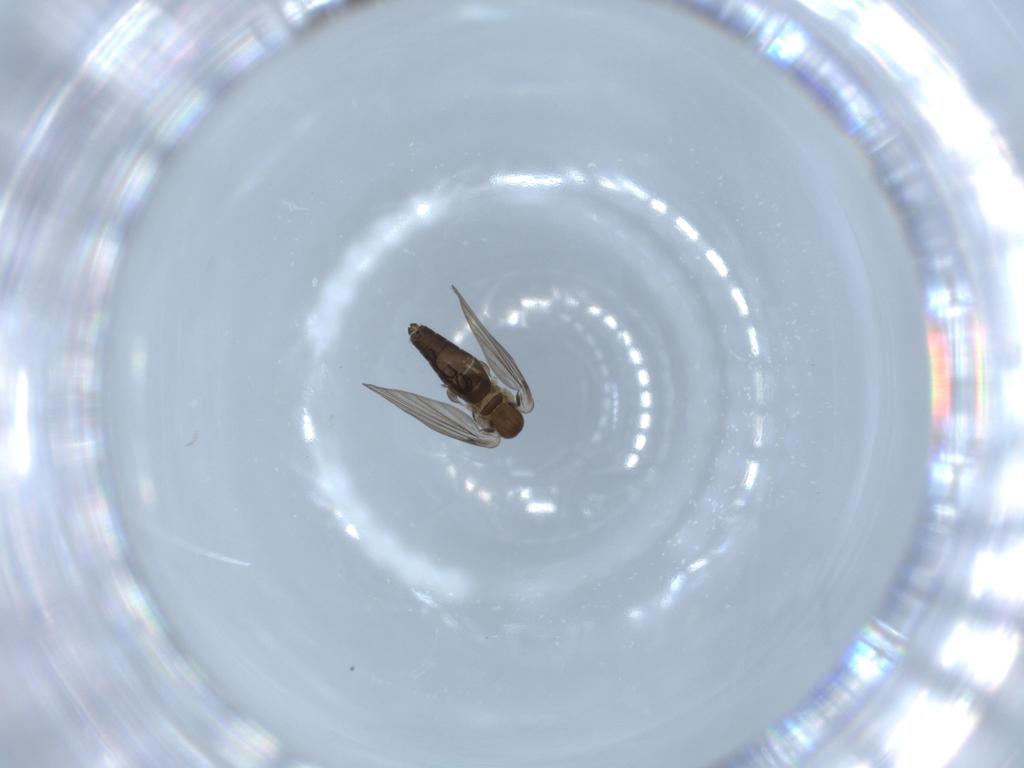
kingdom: Animalia
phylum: Arthropoda
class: Insecta
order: Diptera
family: Psychodidae
